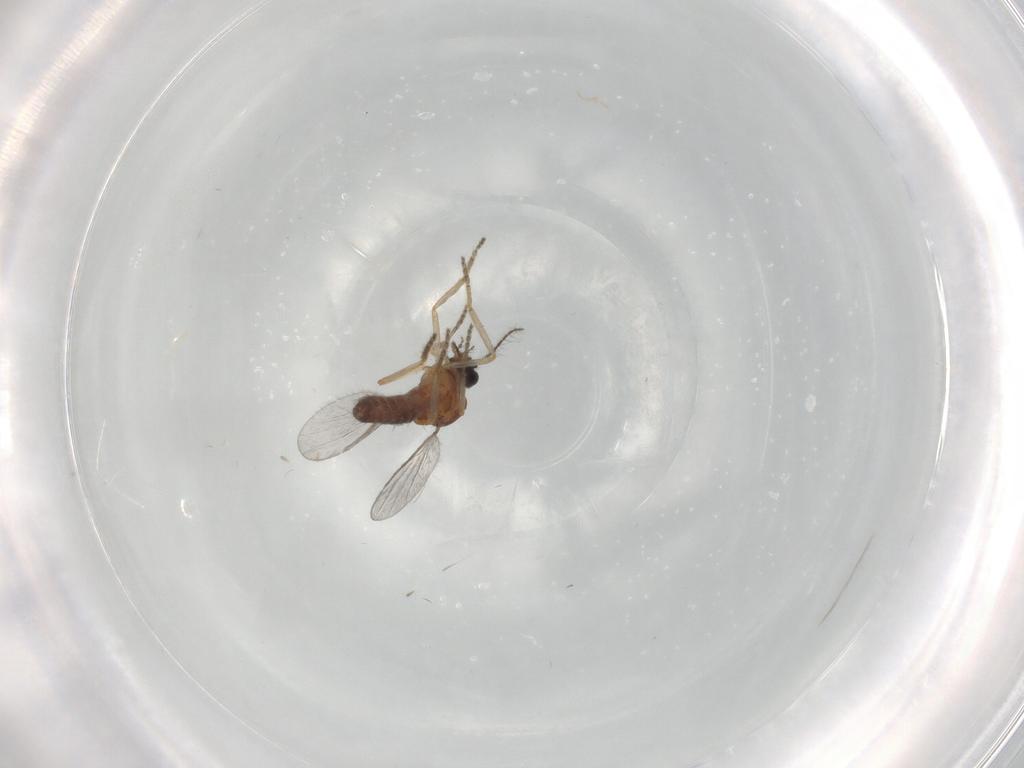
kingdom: Animalia
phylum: Arthropoda
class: Insecta
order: Diptera
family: Ceratopogonidae
